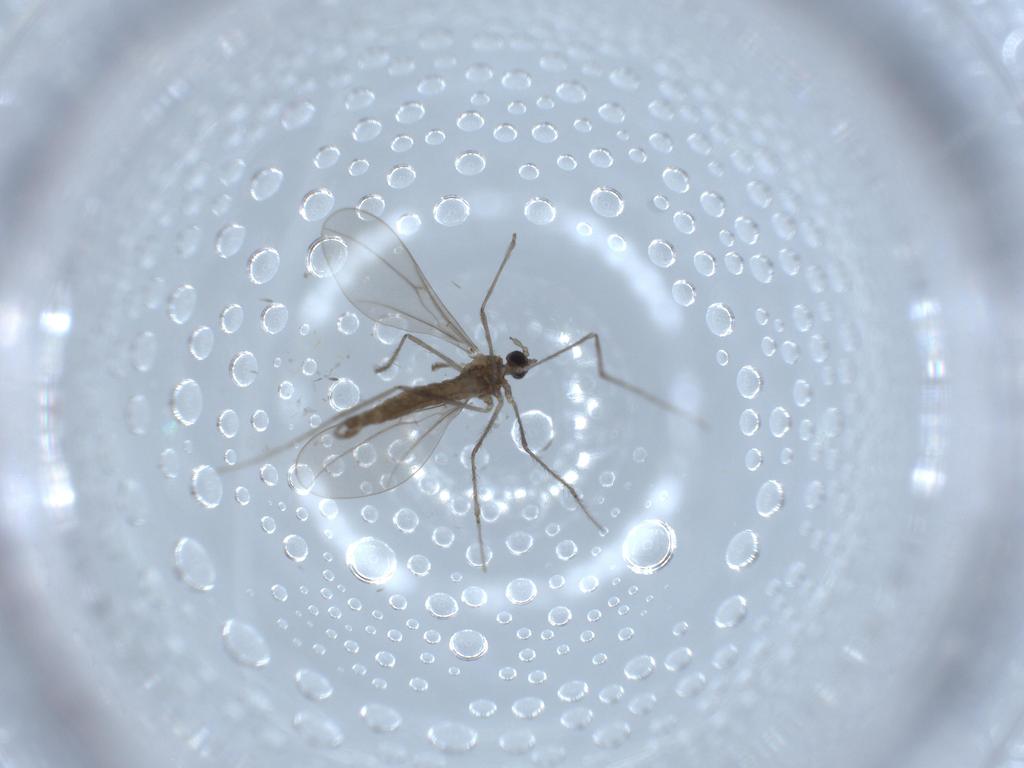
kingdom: Animalia
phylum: Arthropoda
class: Insecta
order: Diptera
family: Cecidomyiidae
